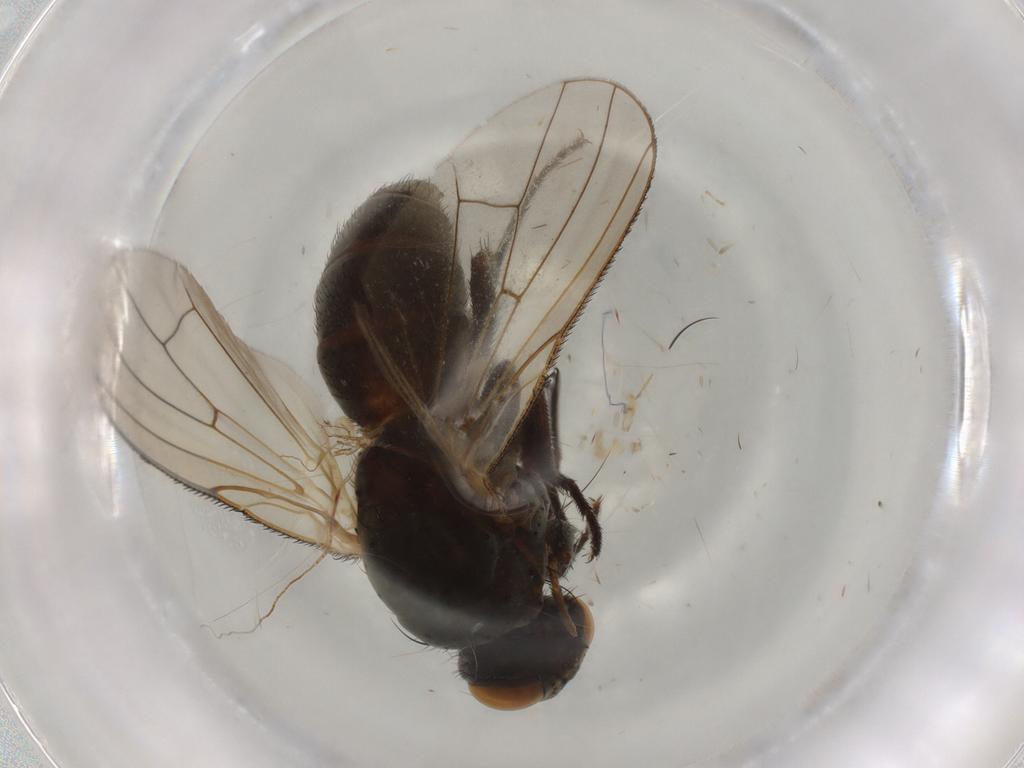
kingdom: Animalia
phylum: Arthropoda
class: Insecta
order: Diptera
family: Anthomyiidae
